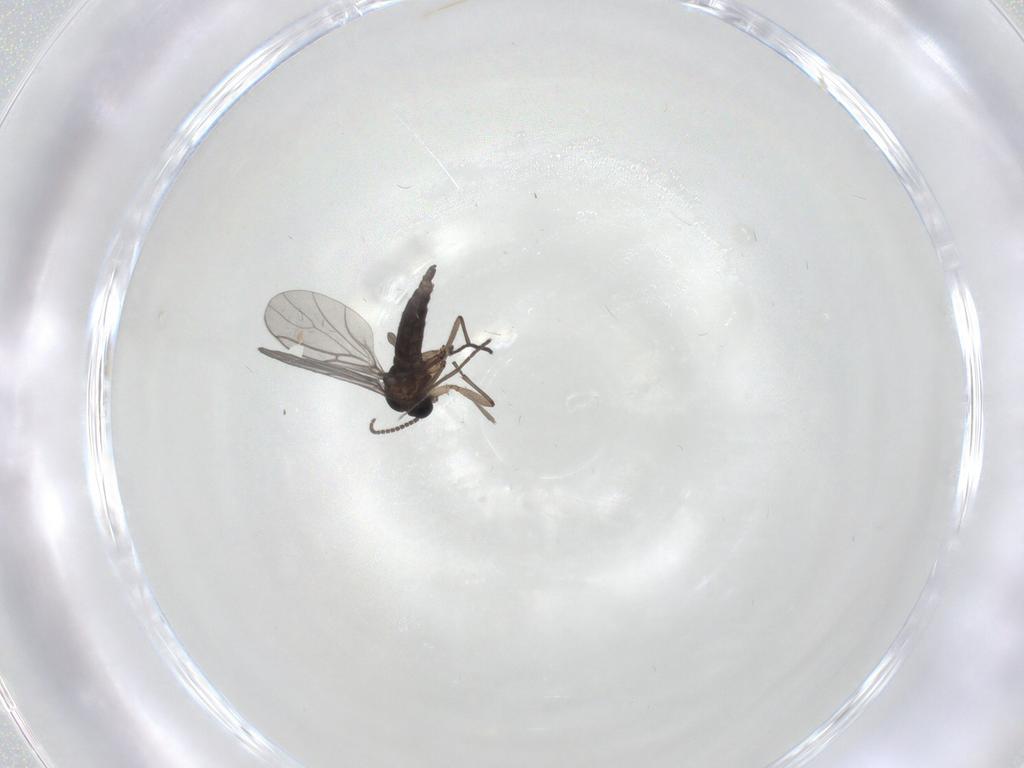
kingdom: Animalia
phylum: Arthropoda
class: Insecta
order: Diptera
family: Sciaridae
